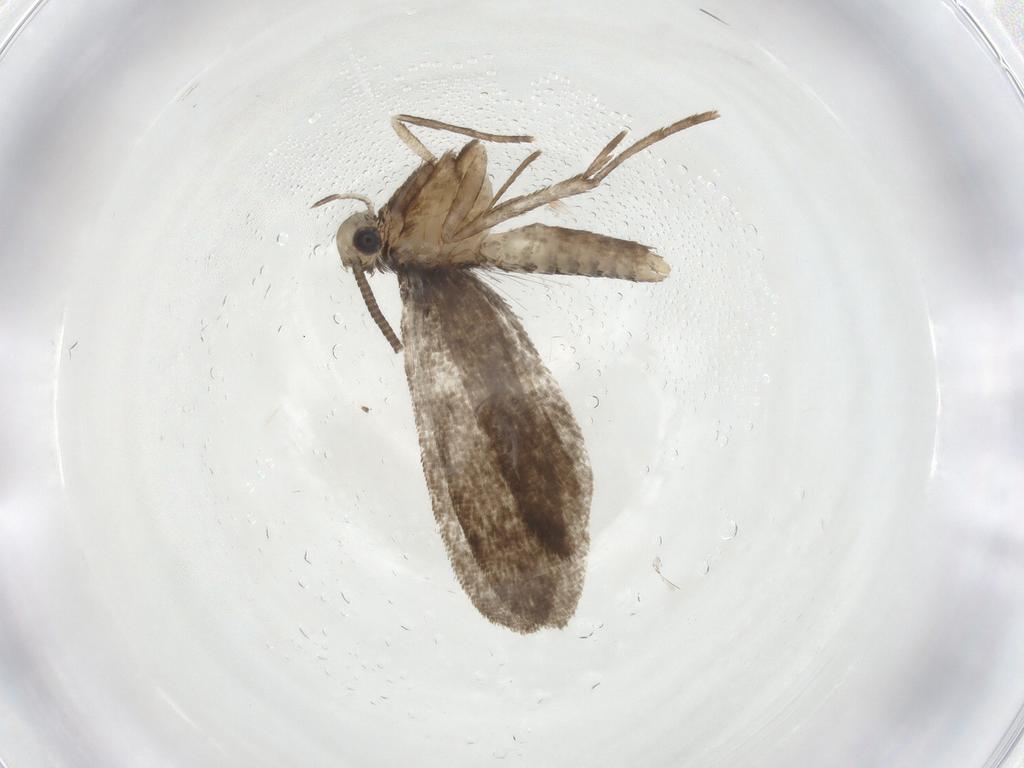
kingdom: Animalia
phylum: Arthropoda
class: Insecta
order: Lepidoptera
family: Nymphalidae
